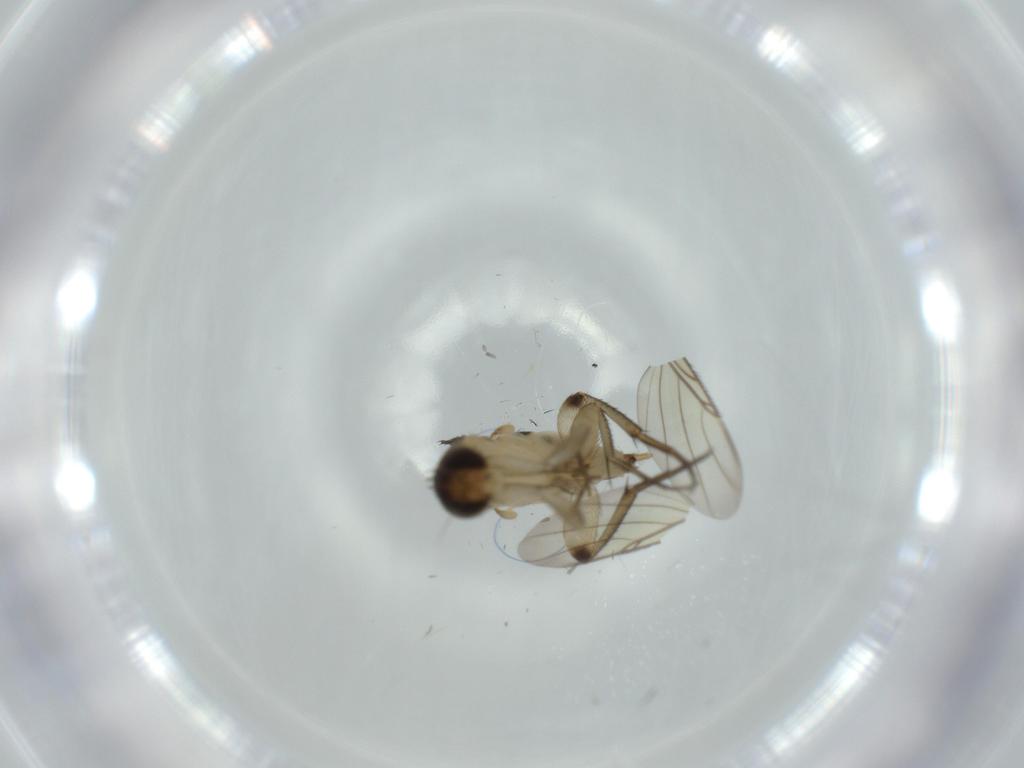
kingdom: Animalia
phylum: Arthropoda
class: Insecta
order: Diptera
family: Phoridae
